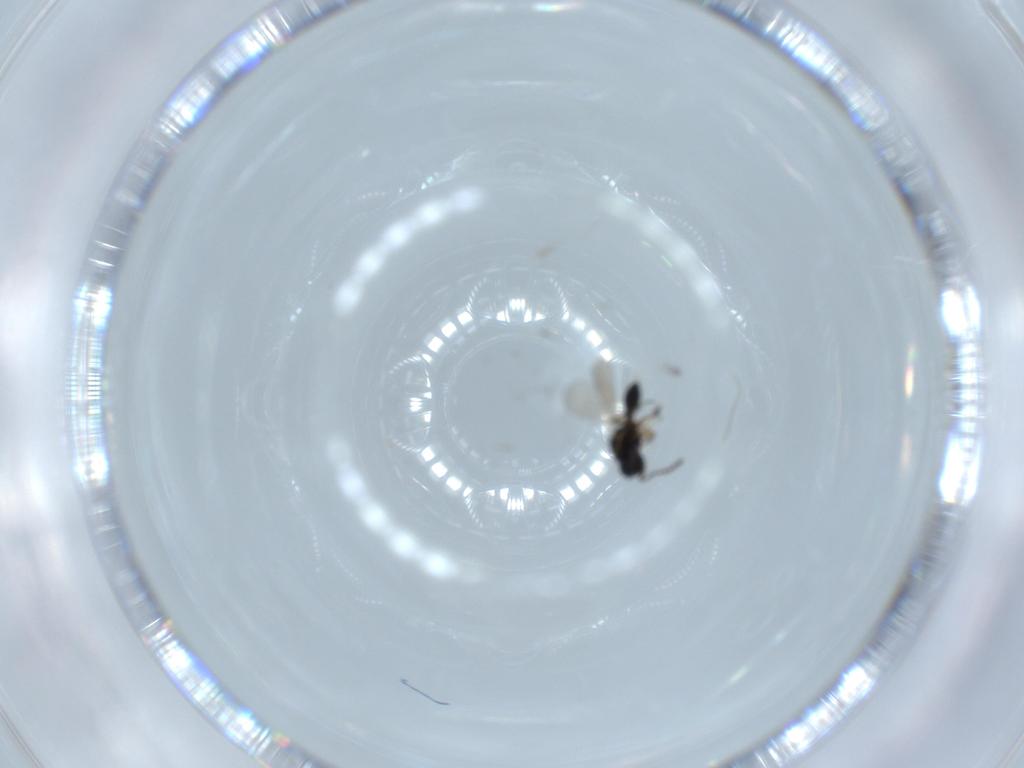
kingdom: Animalia
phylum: Arthropoda
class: Insecta
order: Hymenoptera
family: Platygastridae
